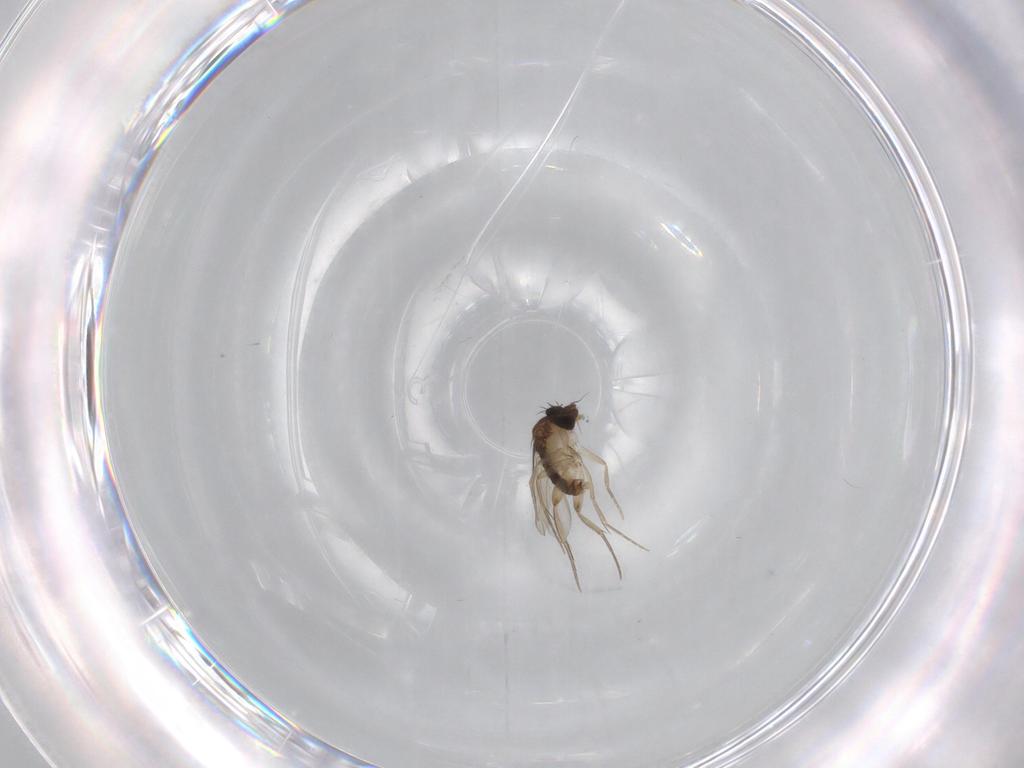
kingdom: Animalia
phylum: Arthropoda
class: Insecta
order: Diptera
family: Phoridae
